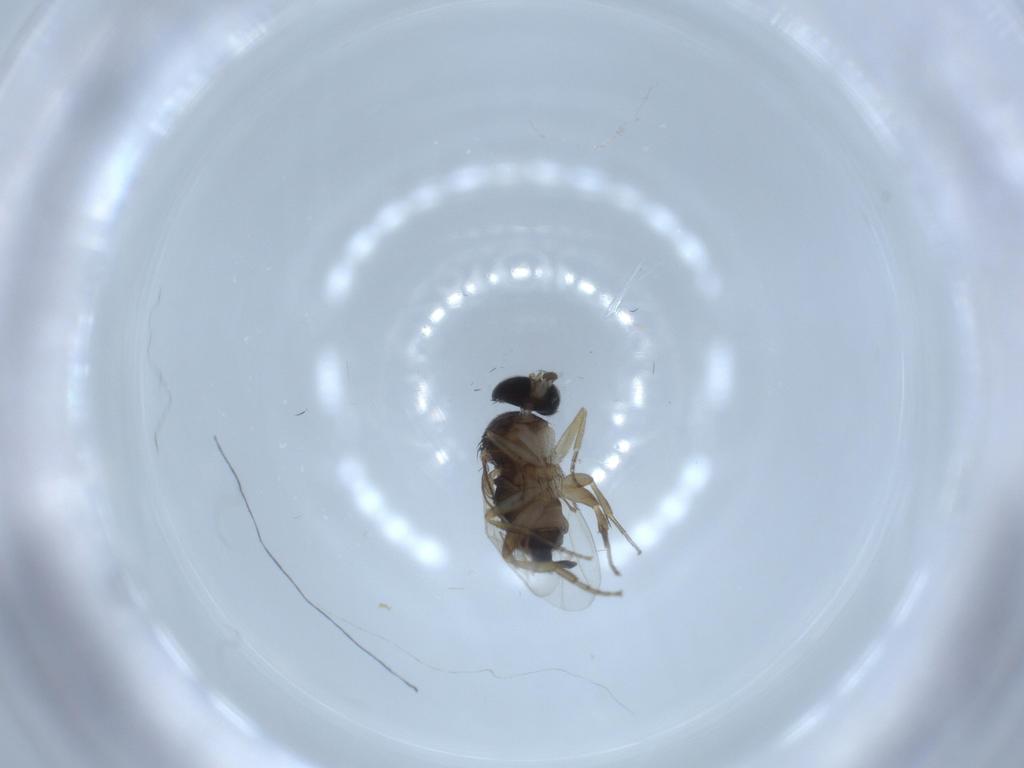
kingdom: Animalia
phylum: Arthropoda
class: Insecta
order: Diptera
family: Phoridae
